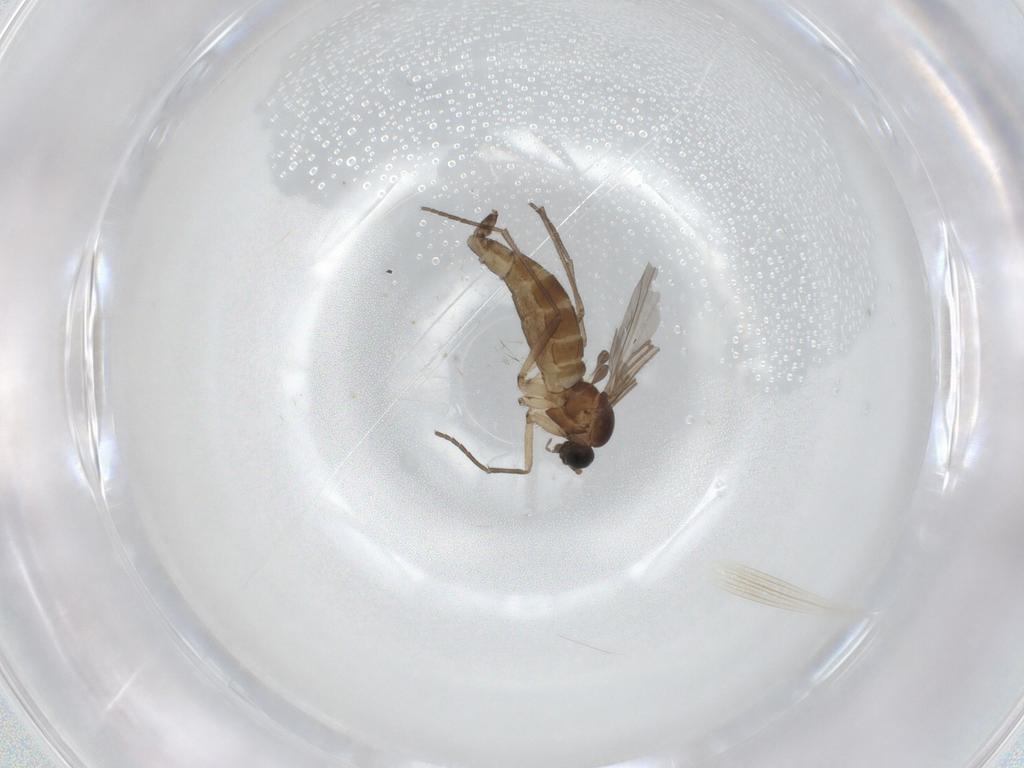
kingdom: Animalia
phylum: Arthropoda
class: Insecta
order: Diptera
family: Sciaridae
